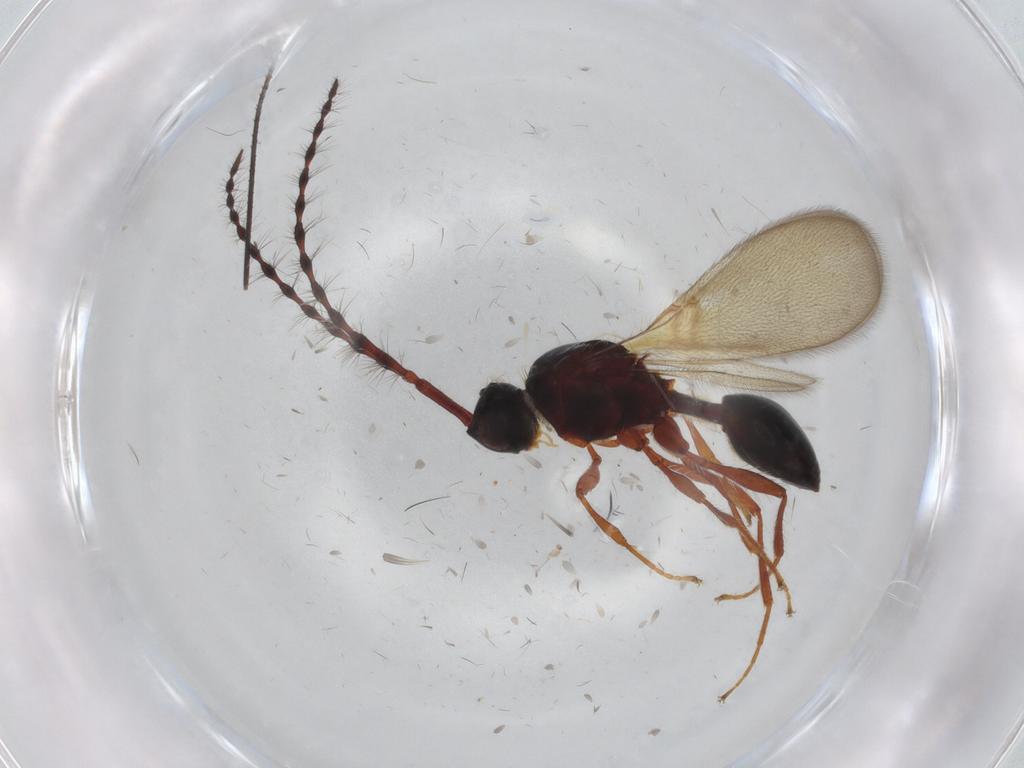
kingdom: Animalia
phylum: Arthropoda
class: Insecta
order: Hymenoptera
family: Diapriidae
